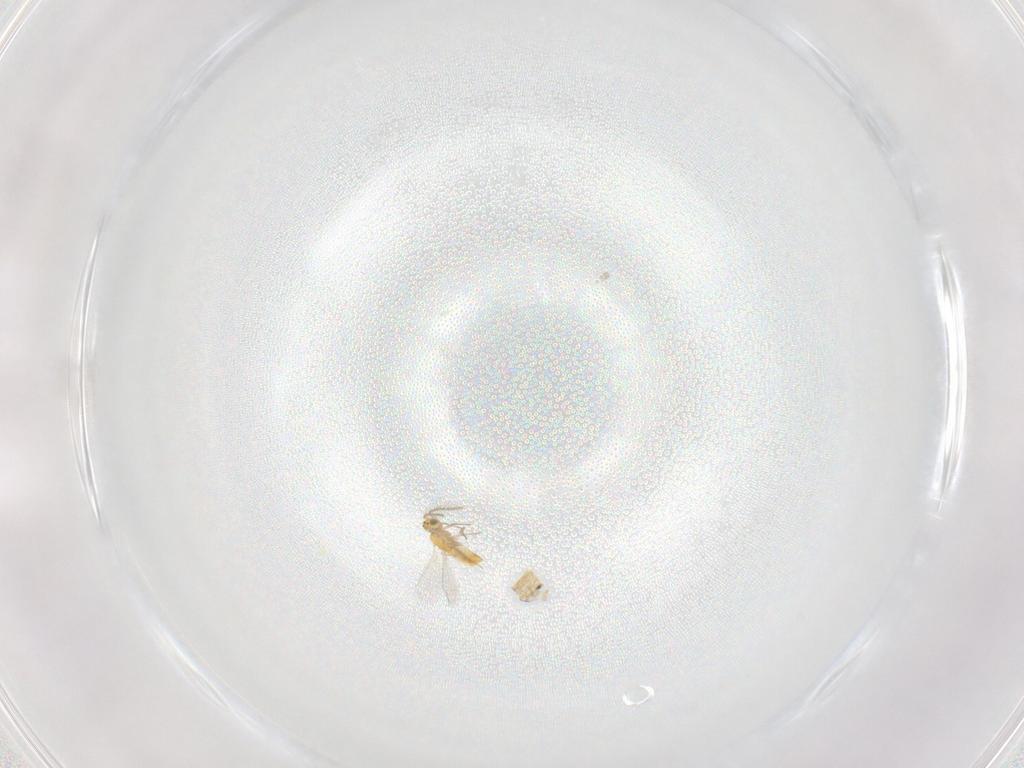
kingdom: Animalia
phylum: Arthropoda
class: Insecta
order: Hymenoptera
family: Aphelinidae
